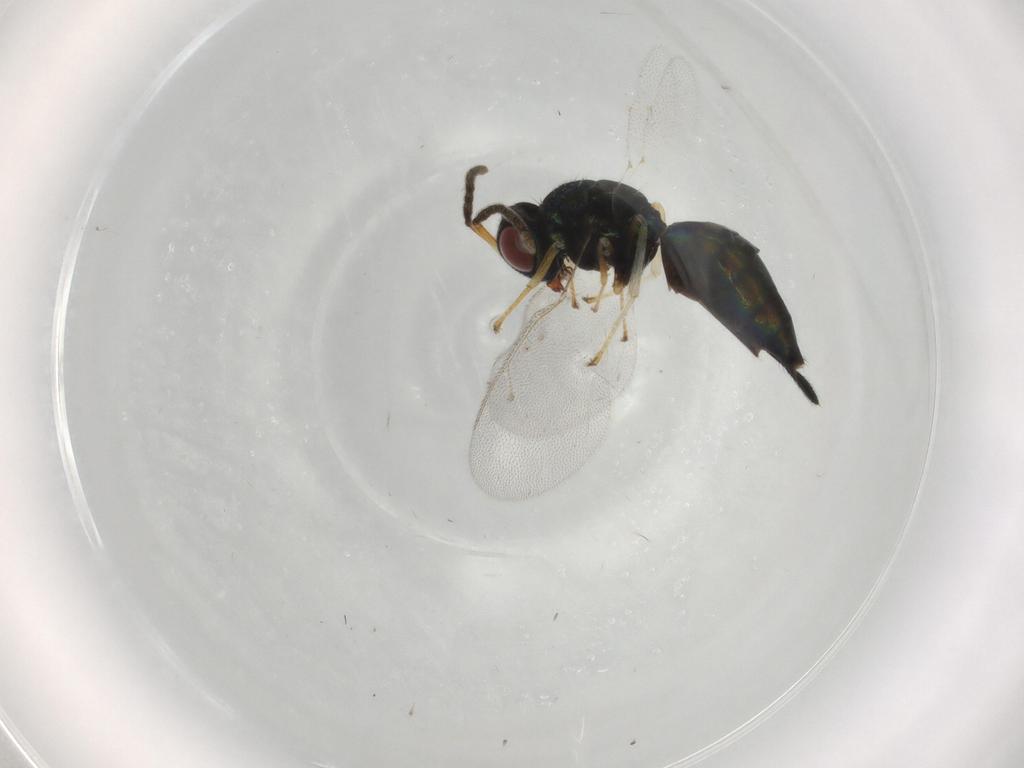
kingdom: Animalia
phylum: Arthropoda
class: Insecta
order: Hymenoptera
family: Pteromalidae
